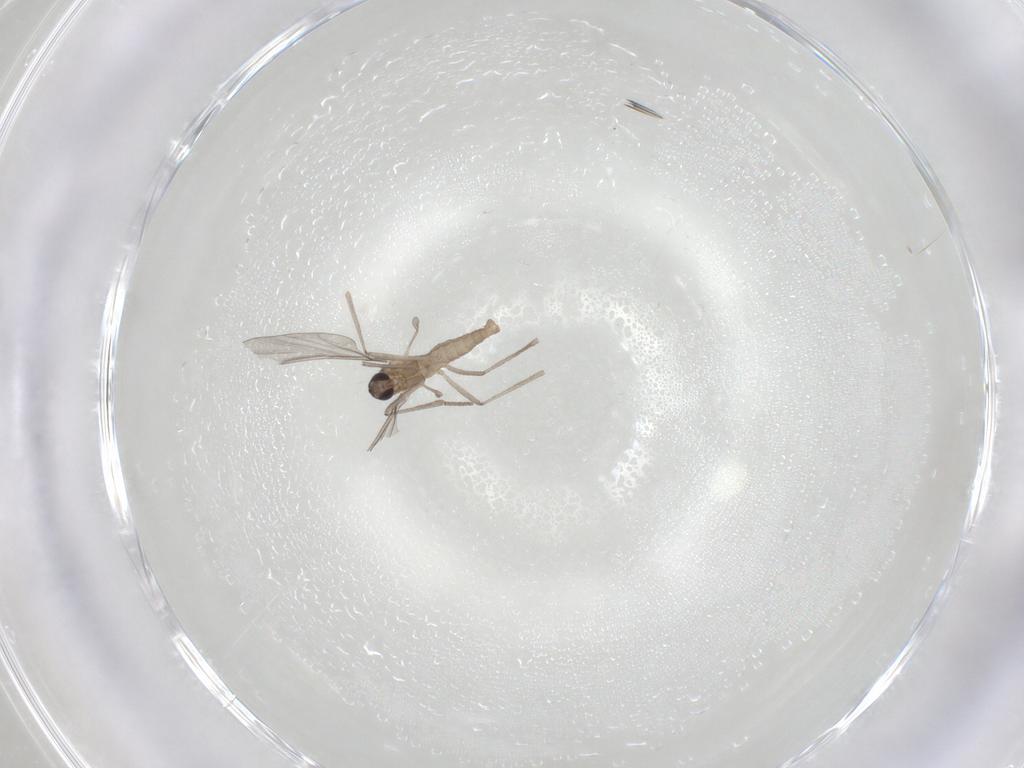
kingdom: Animalia
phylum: Arthropoda
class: Insecta
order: Diptera
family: Cecidomyiidae
